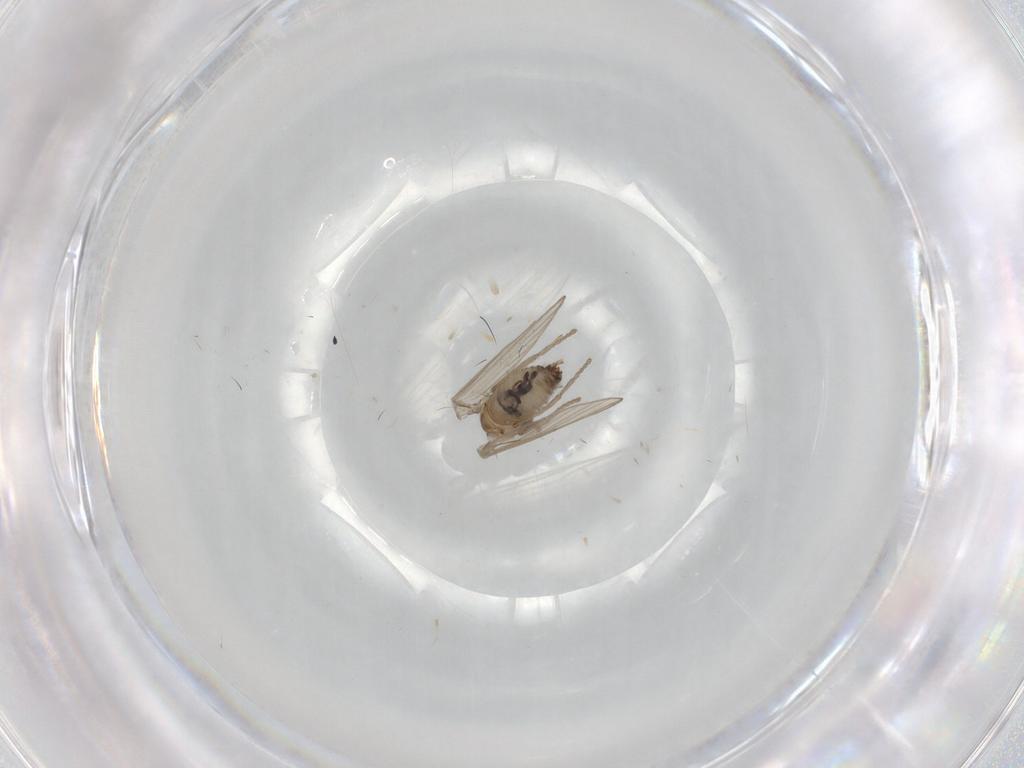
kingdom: Animalia
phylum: Arthropoda
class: Insecta
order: Diptera
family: Psychodidae
